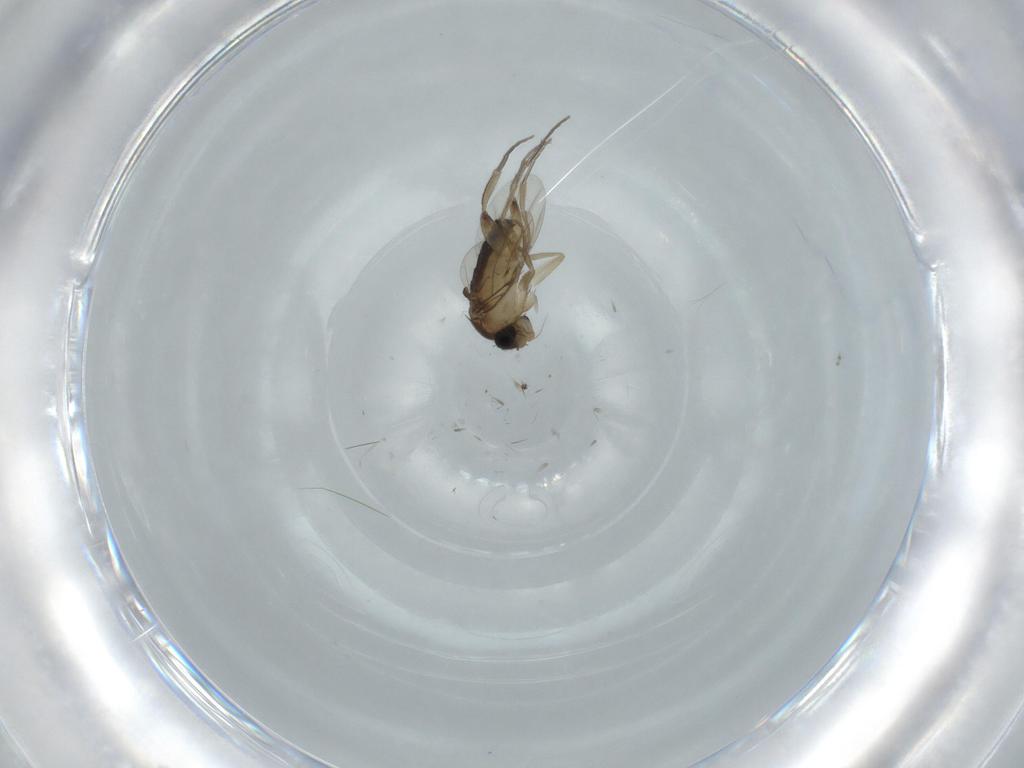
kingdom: Animalia
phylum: Arthropoda
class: Insecta
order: Diptera
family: Phoridae
